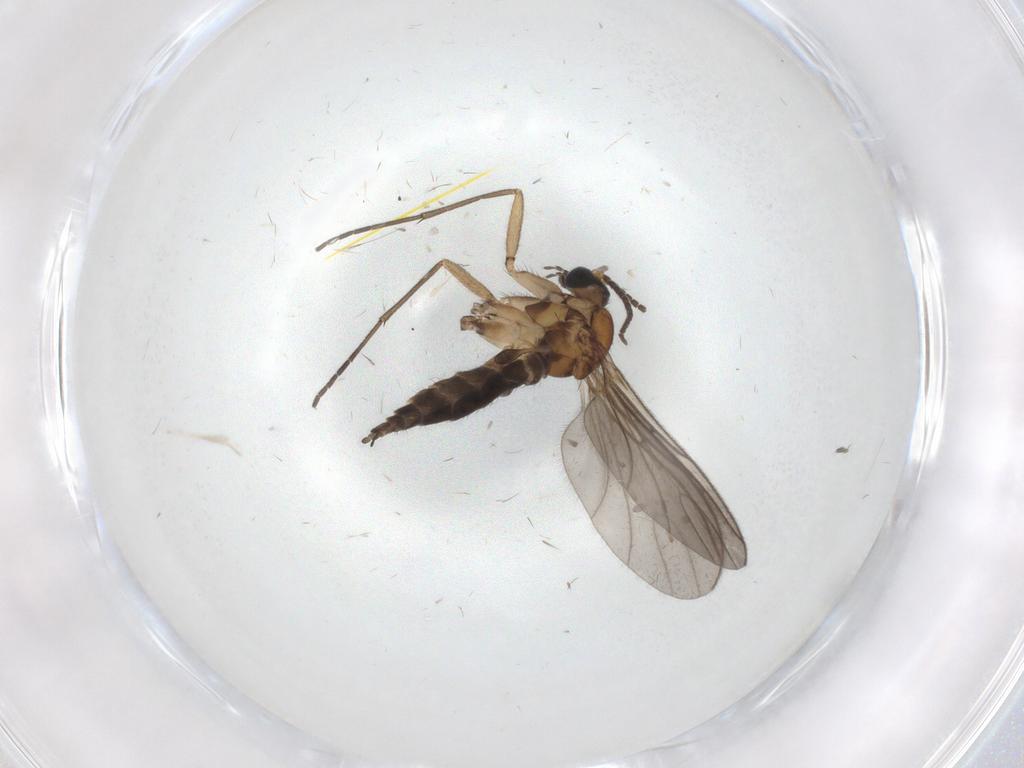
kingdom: Animalia
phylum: Arthropoda
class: Insecta
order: Diptera
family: Sciaridae
